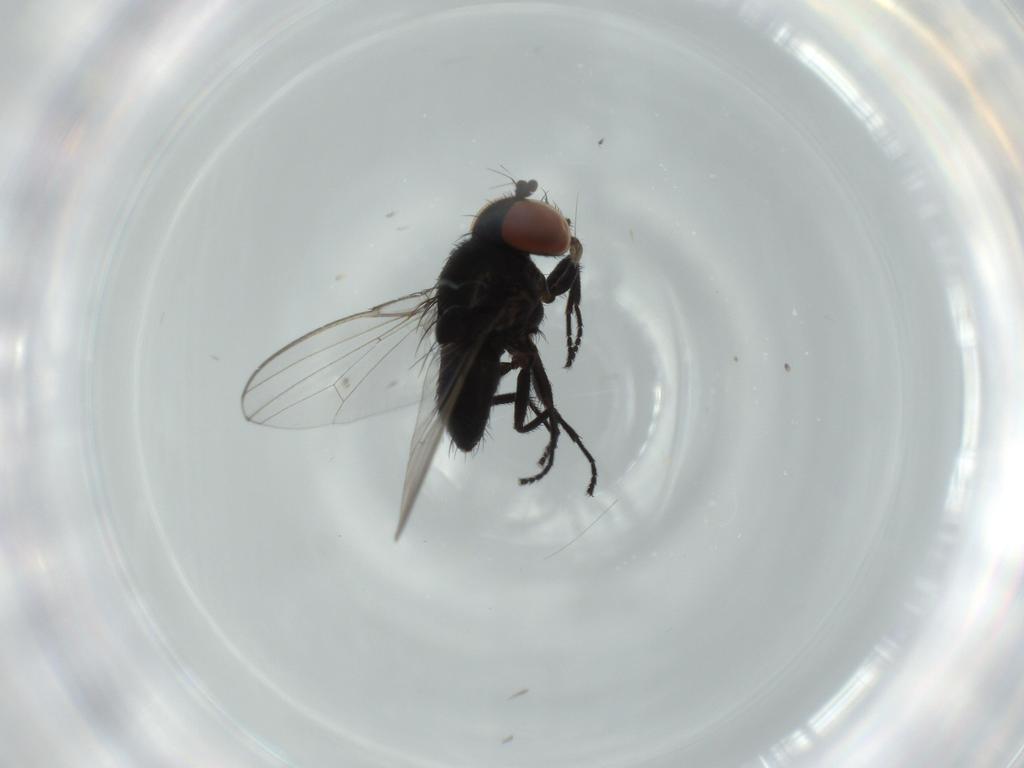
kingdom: Animalia
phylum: Arthropoda
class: Insecta
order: Diptera
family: Milichiidae
